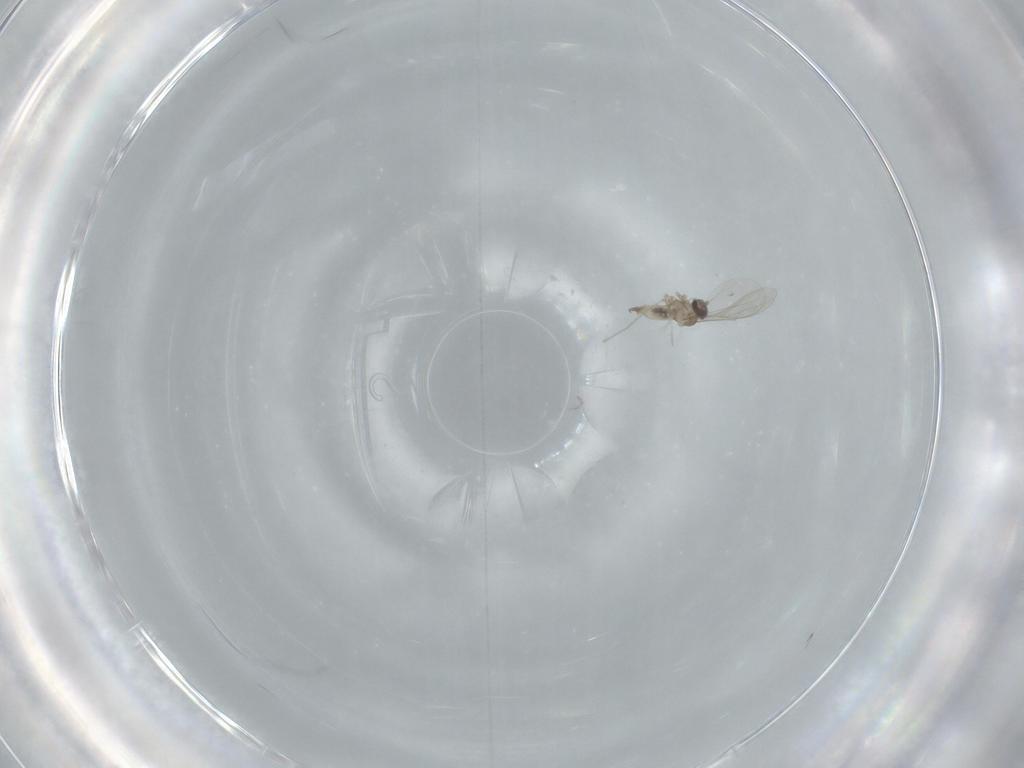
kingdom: Animalia
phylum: Arthropoda
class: Insecta
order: Diptera
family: Cecidomyiidae
